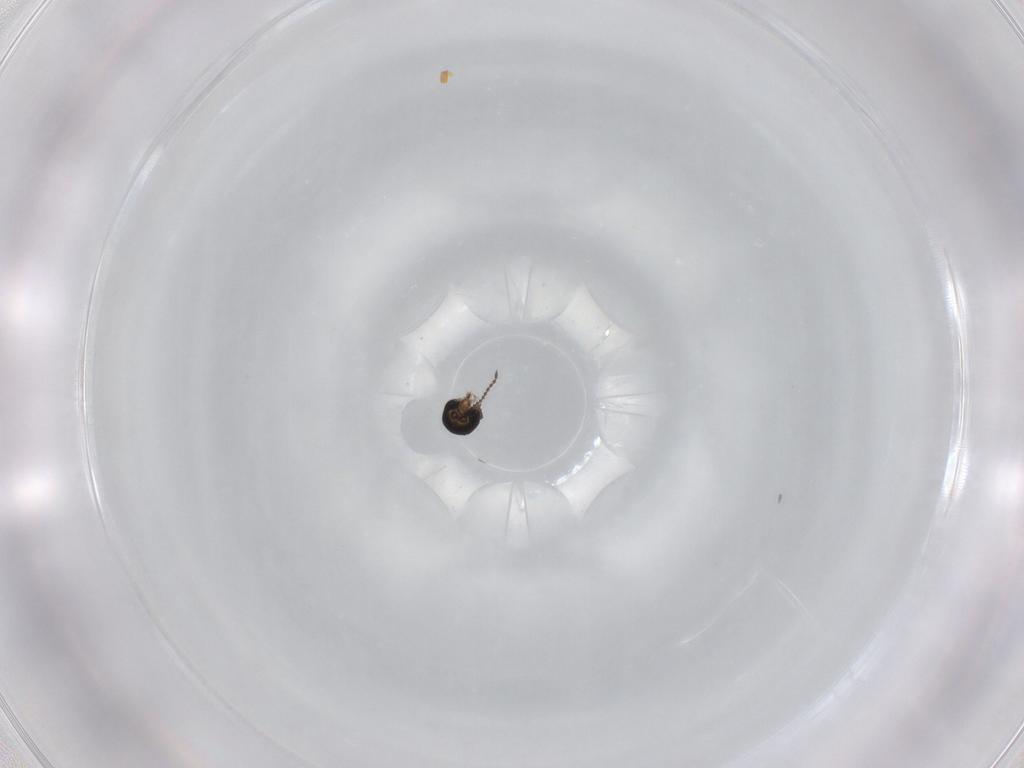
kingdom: Animalia
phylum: Arthropoda
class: Insecta
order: Diptera
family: Ceratopogonidae
